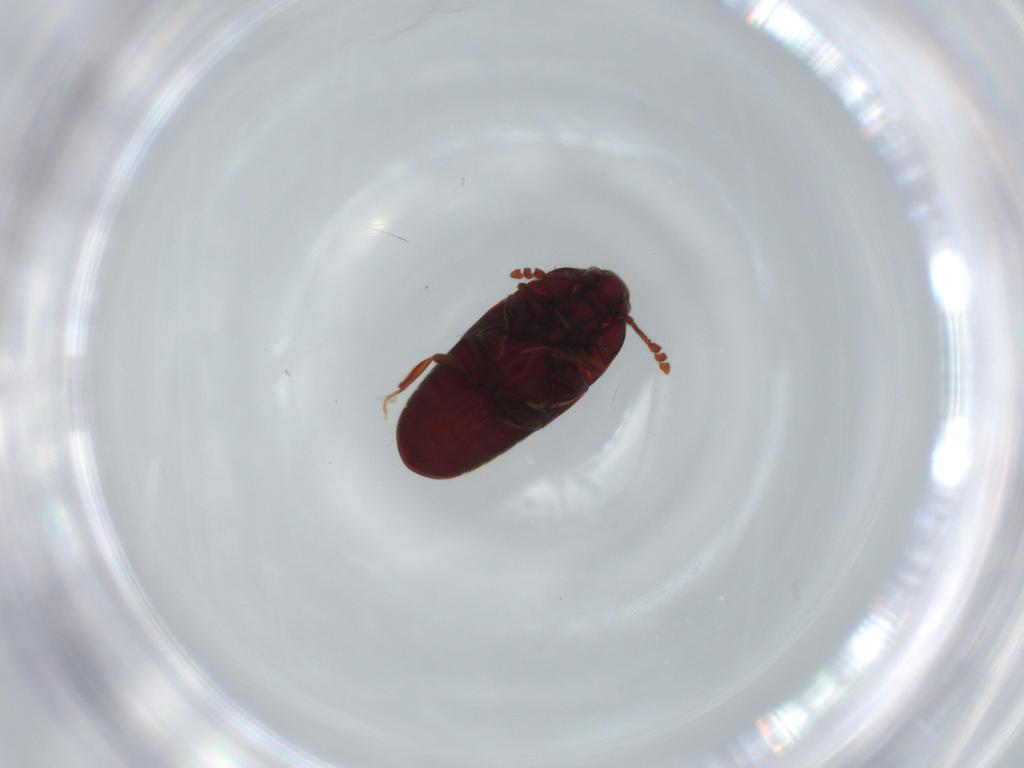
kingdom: Animalia
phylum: Arthropoda
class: Insecta
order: Coleoptera
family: Throscidae
